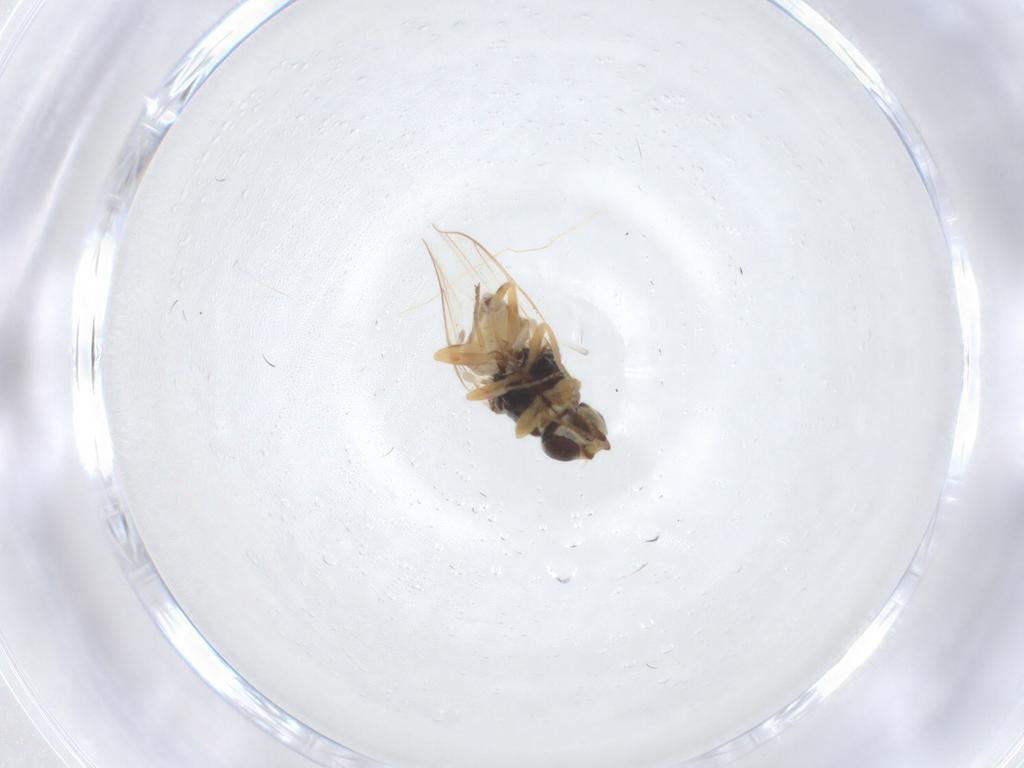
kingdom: Animalia
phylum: Arthropoda
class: Insecta
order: Diptera
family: Chloropidae
